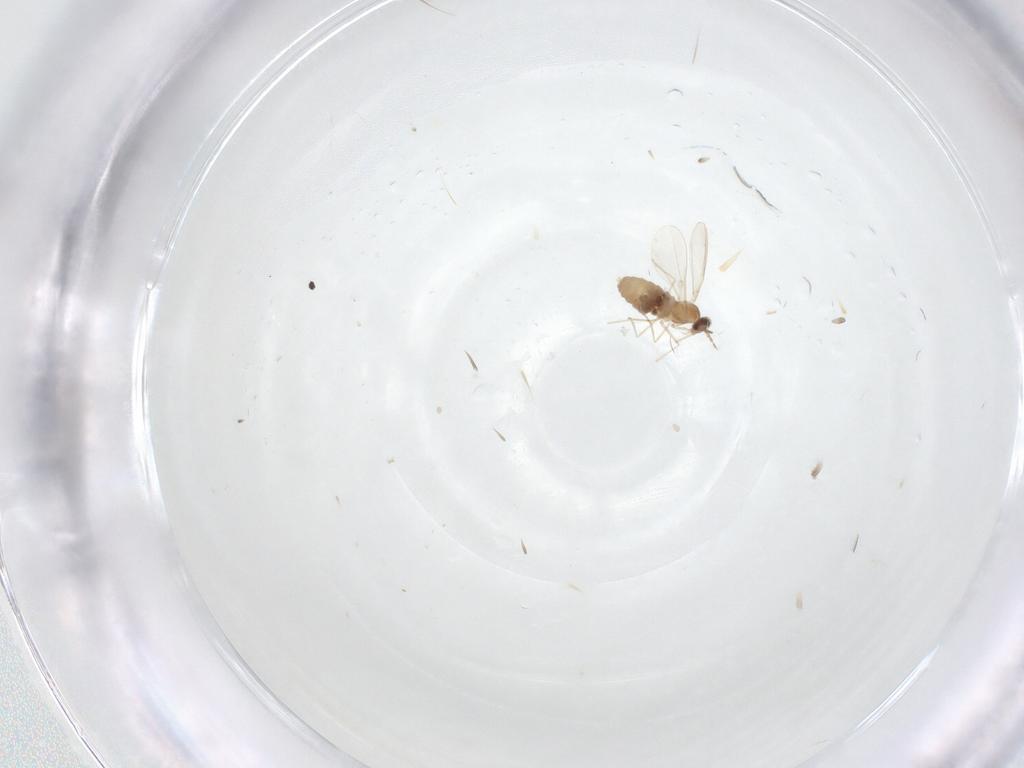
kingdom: Animalia
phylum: Arthropoda
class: Insecta
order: Diptera
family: Cecidomyiidae
